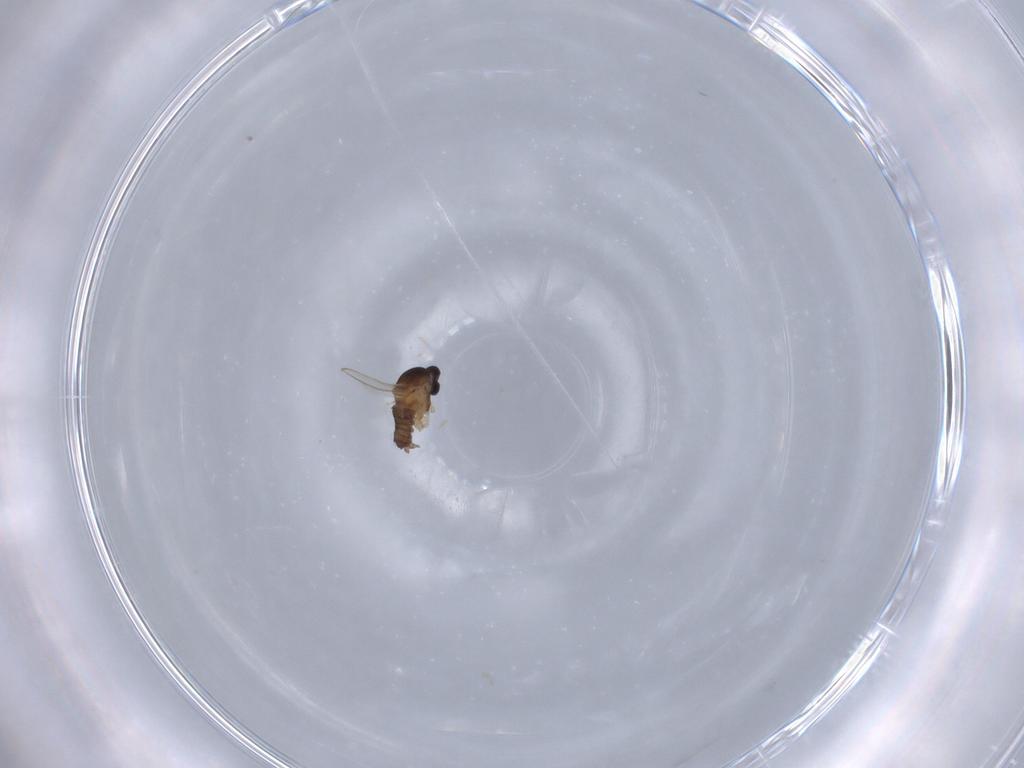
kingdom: Animalia
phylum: Arthropoda
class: Insecta
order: Diptera
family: Cecidomyiidae
